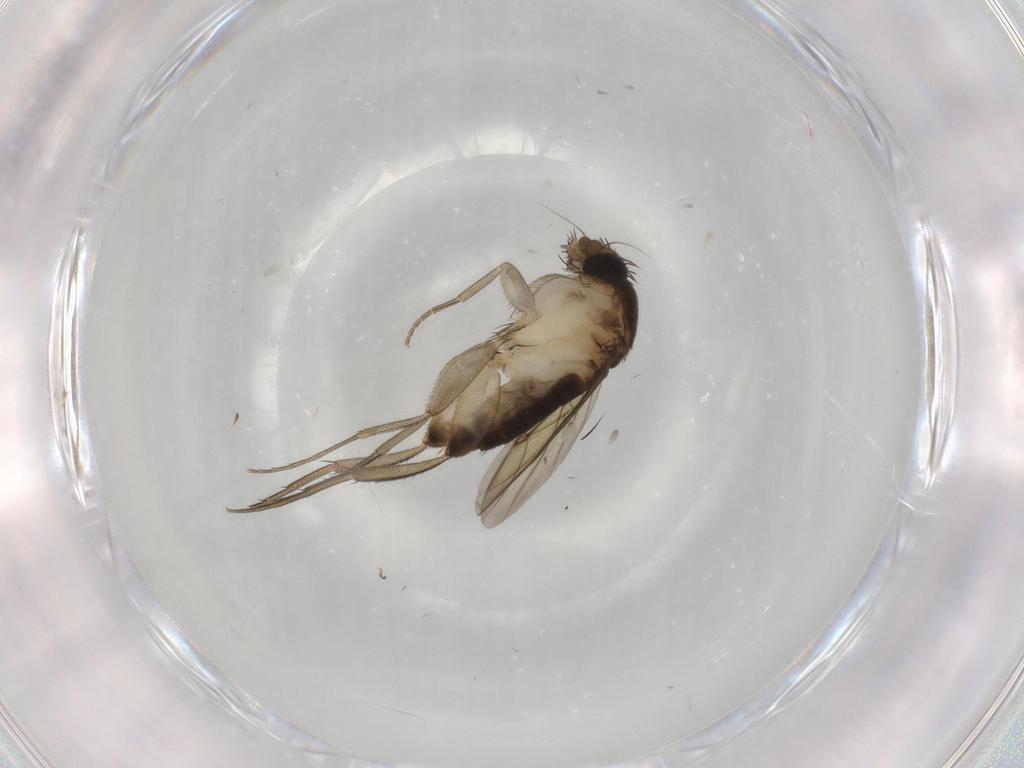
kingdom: Animalia
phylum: Arthropoda
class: Insecta
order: Diptera
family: Phoridae
